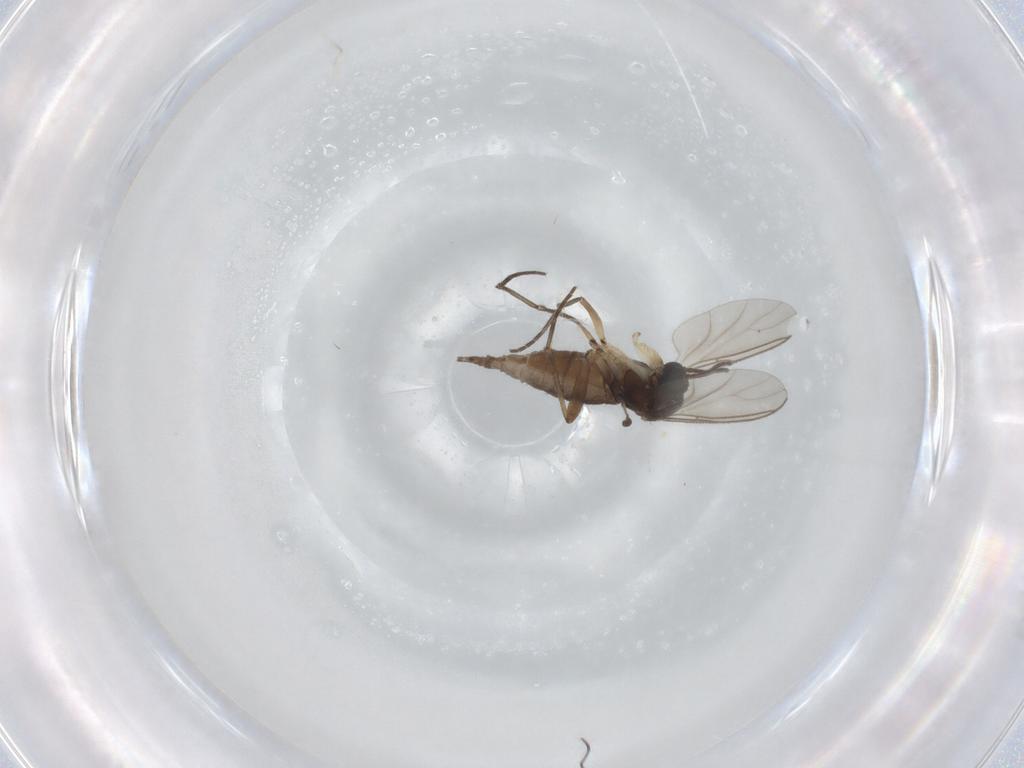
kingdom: Animalia
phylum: Arthropoda
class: Insecta
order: Diptera
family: Sciaridae
